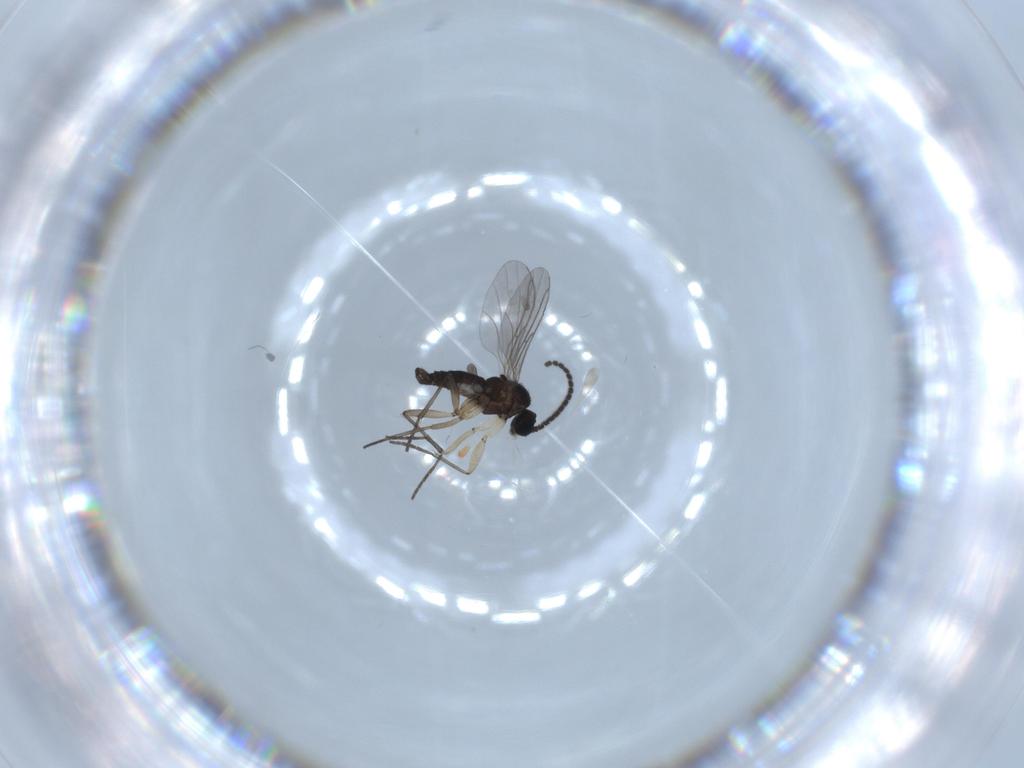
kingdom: Animalia
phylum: Arthropoda
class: Insecta
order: Diptera
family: Sciaridae
